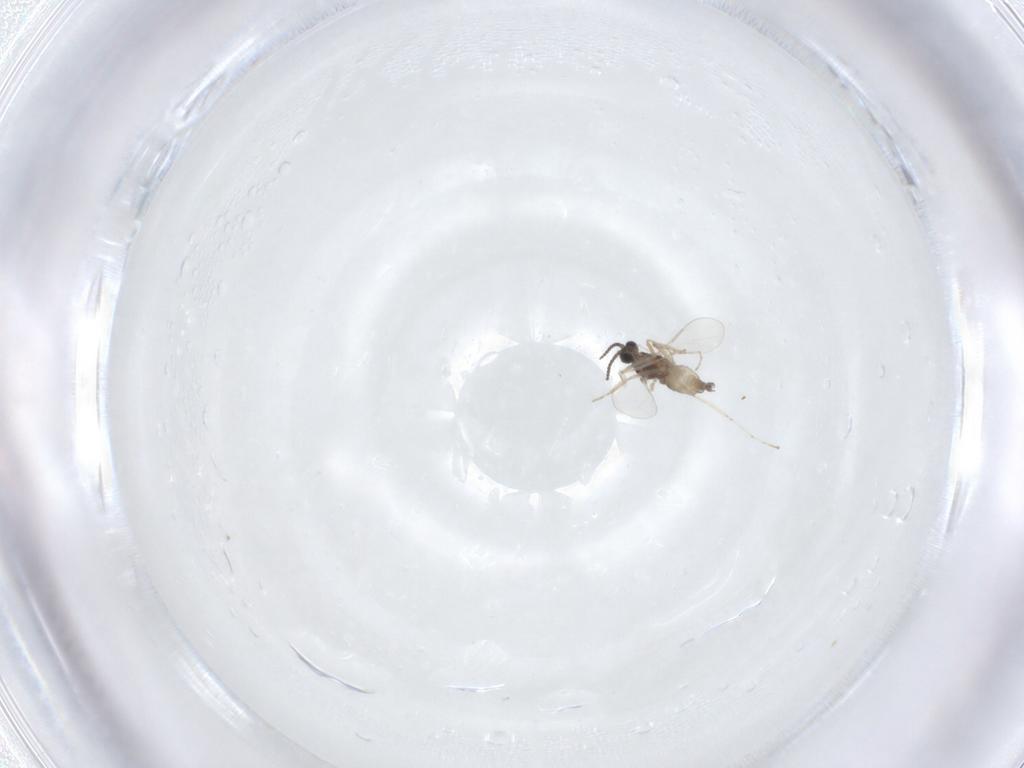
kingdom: Animalia
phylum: Arthropoda
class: Insecta
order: Diptera
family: Cecidomyiidae
